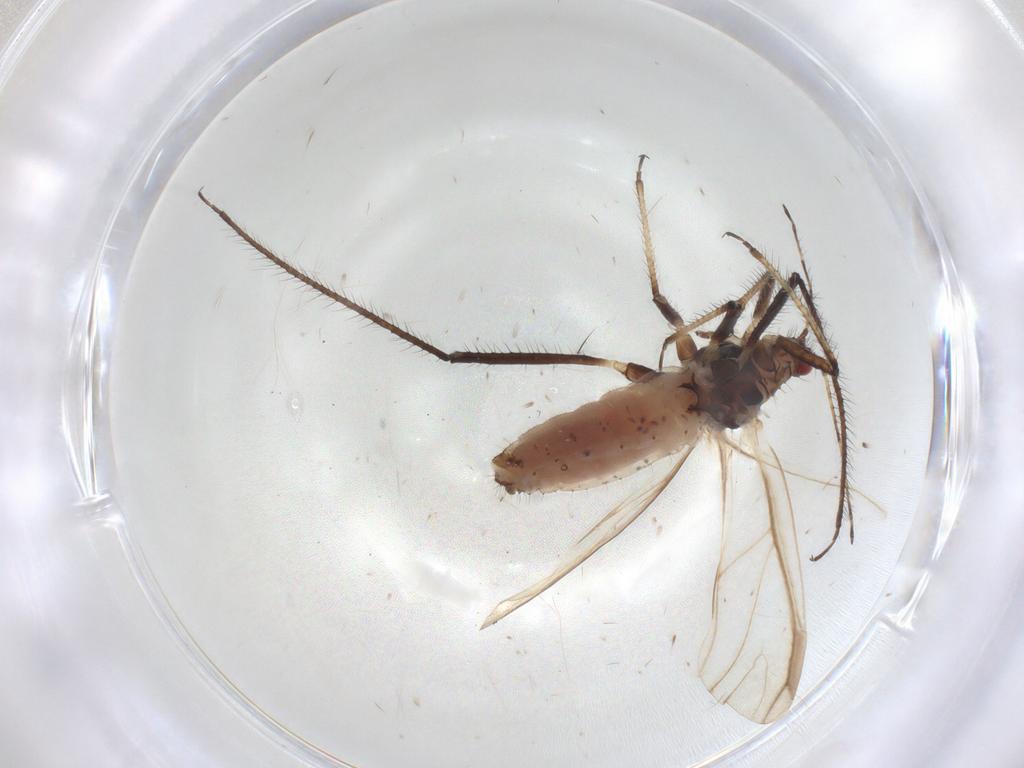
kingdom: Animalia
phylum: Arthropoda
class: Insecta
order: Hemiptera
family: Aphididae
